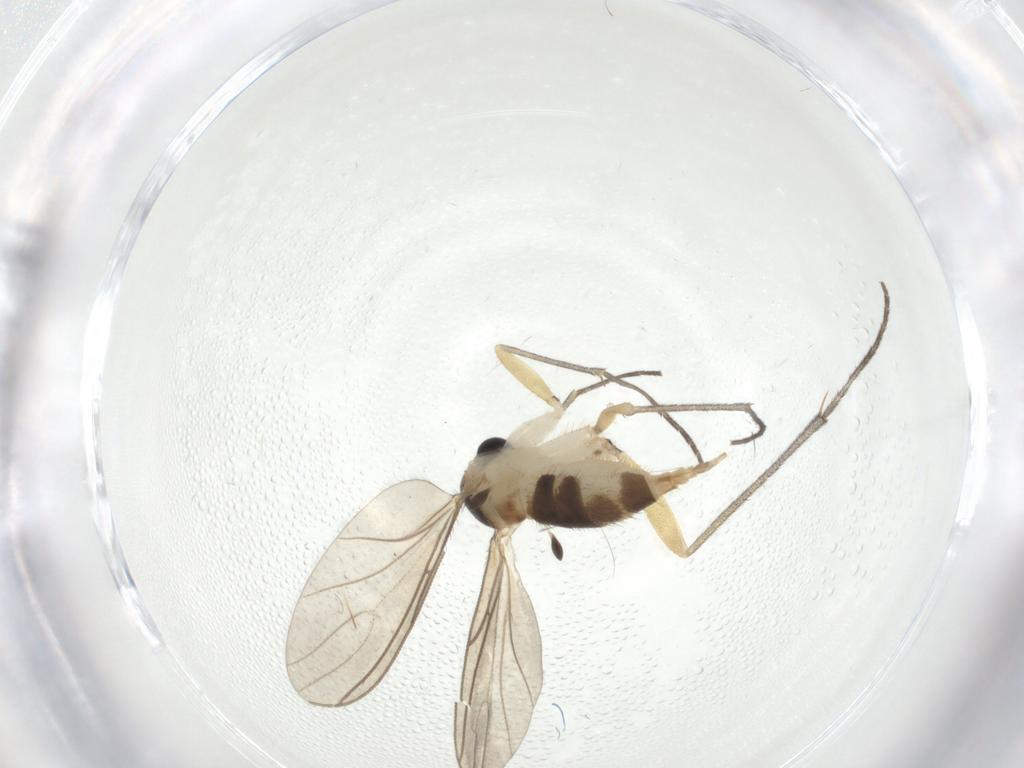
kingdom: Animalia
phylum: Arthropoda
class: Insecta
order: Diptera
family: Sciaridae
